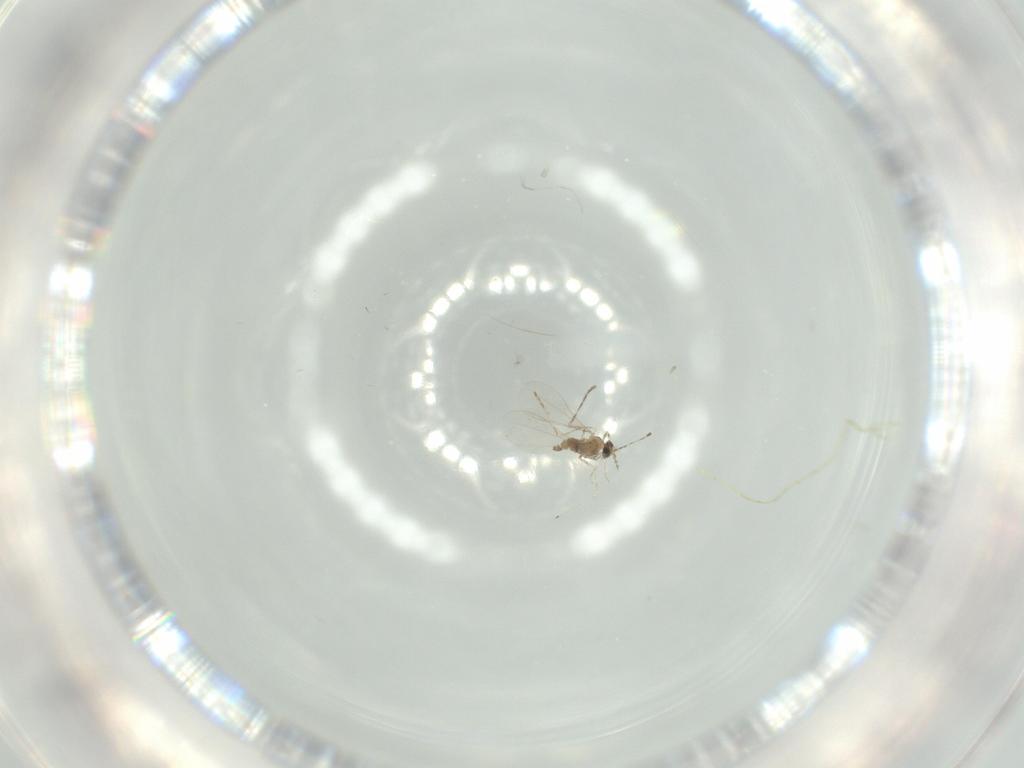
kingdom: Animalia
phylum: Arthropoda
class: Insecta
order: Diptera
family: Cecidomyiidae
